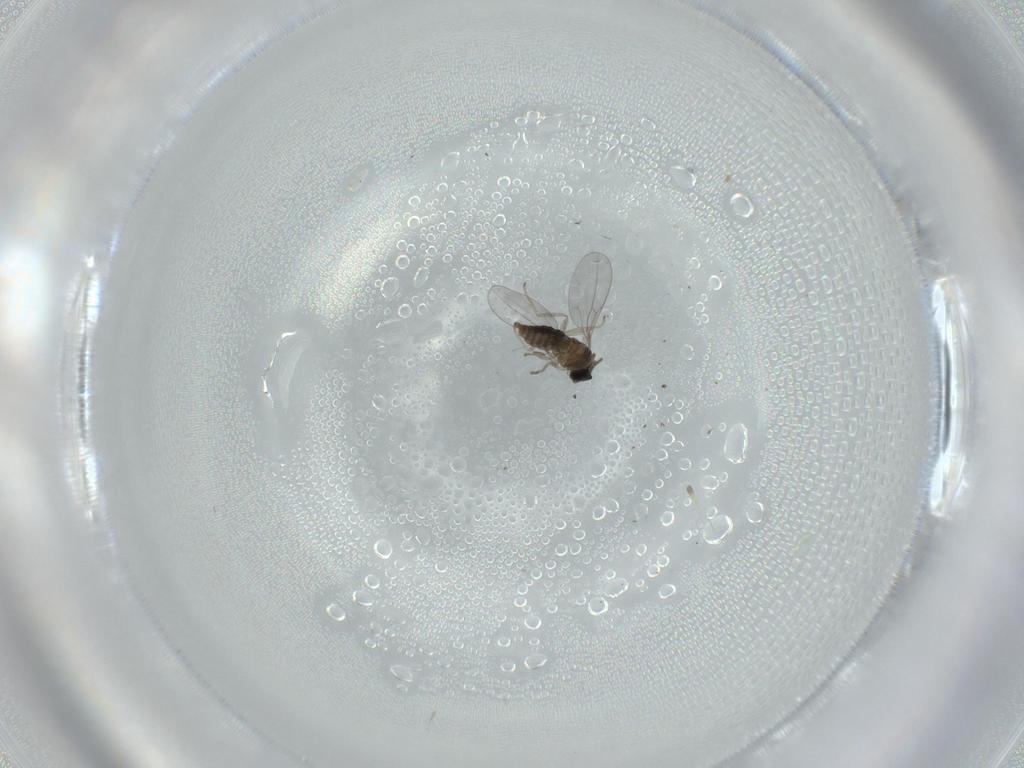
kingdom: Animalia
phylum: Arthropoda
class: Insecta
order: Diptera
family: Cecidomyiidae
